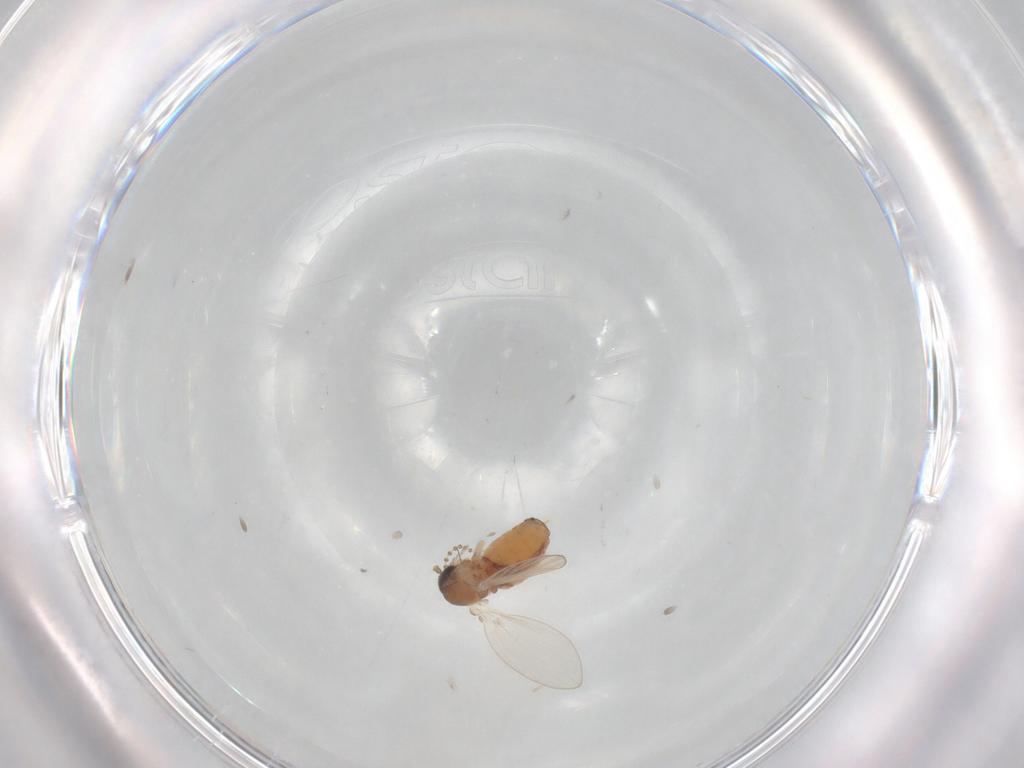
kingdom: Animalia
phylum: Arthropoda
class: Insecta
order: Diptera
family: Psychodidae
